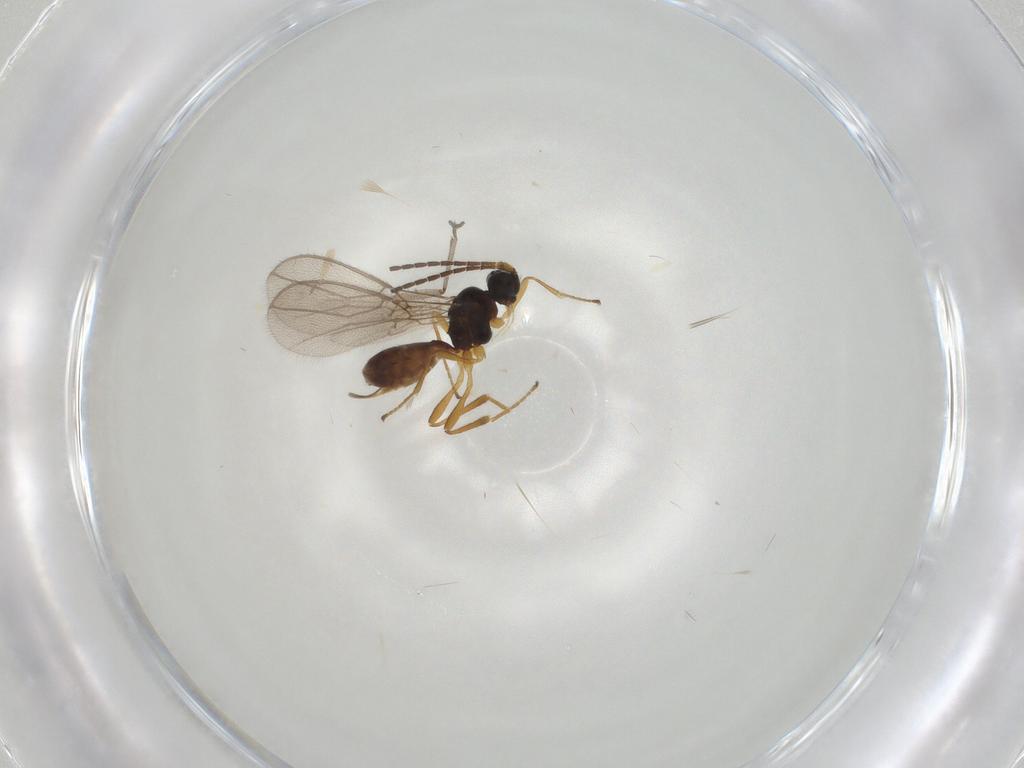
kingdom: Animalia
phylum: Arthropoda
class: Insecta
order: Hymenoptera
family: Braconidae
